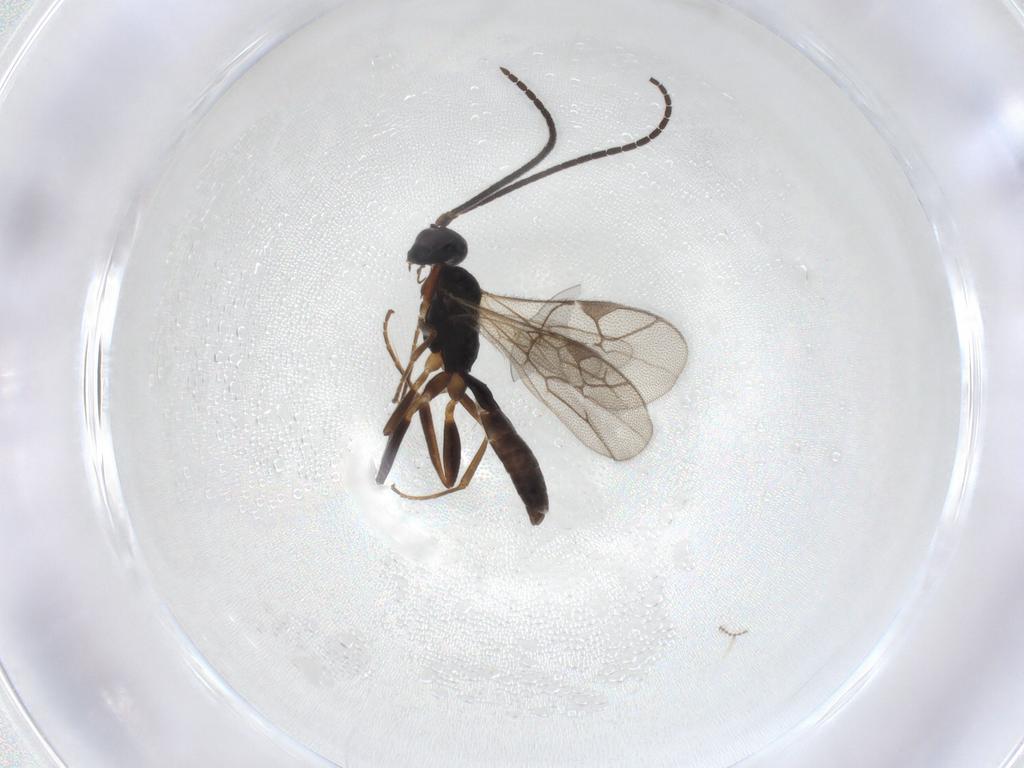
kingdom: Animalia
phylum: Arthropoda
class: Insecta
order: Hymenoptera
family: Ichneumonidae
